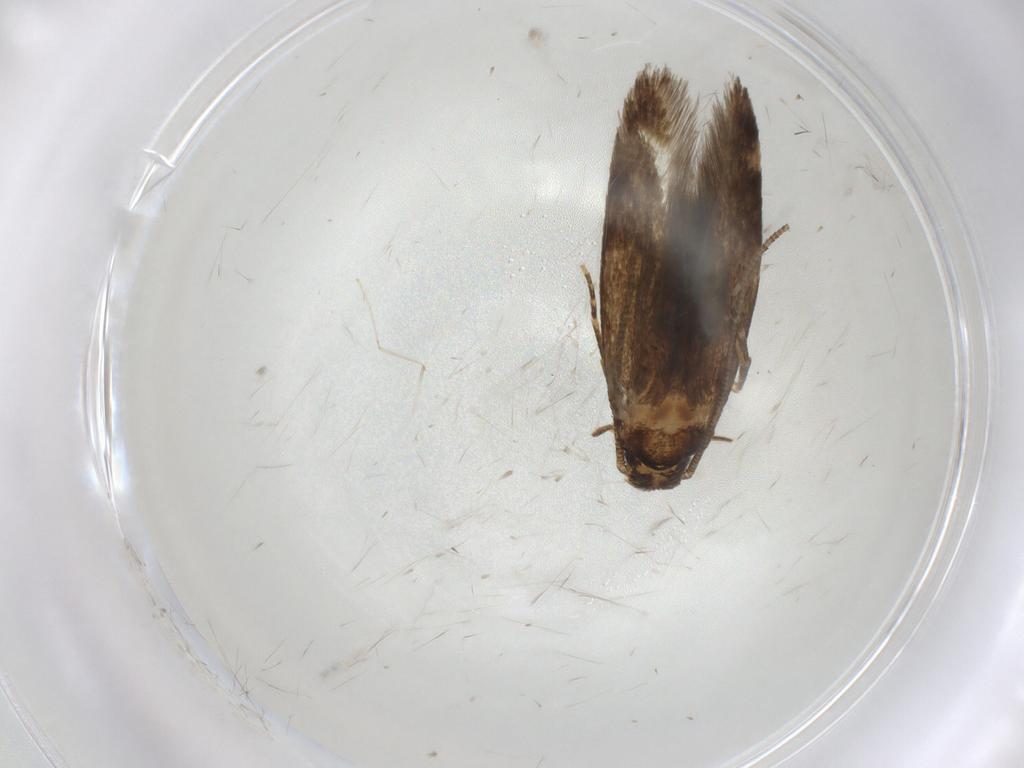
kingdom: Animalia
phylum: Arthropoda
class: Insecta
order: Lepidoptera
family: Tineidae
